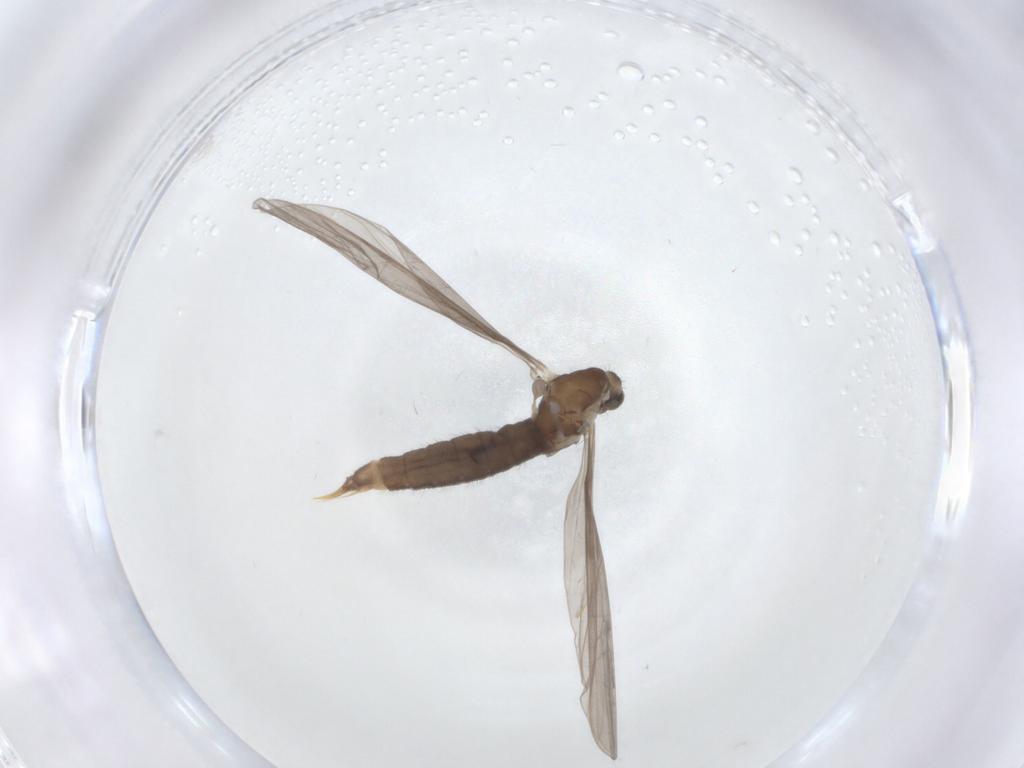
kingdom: Animalia
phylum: Arthropoda
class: Insecta
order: Diptera
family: Limoniidae
